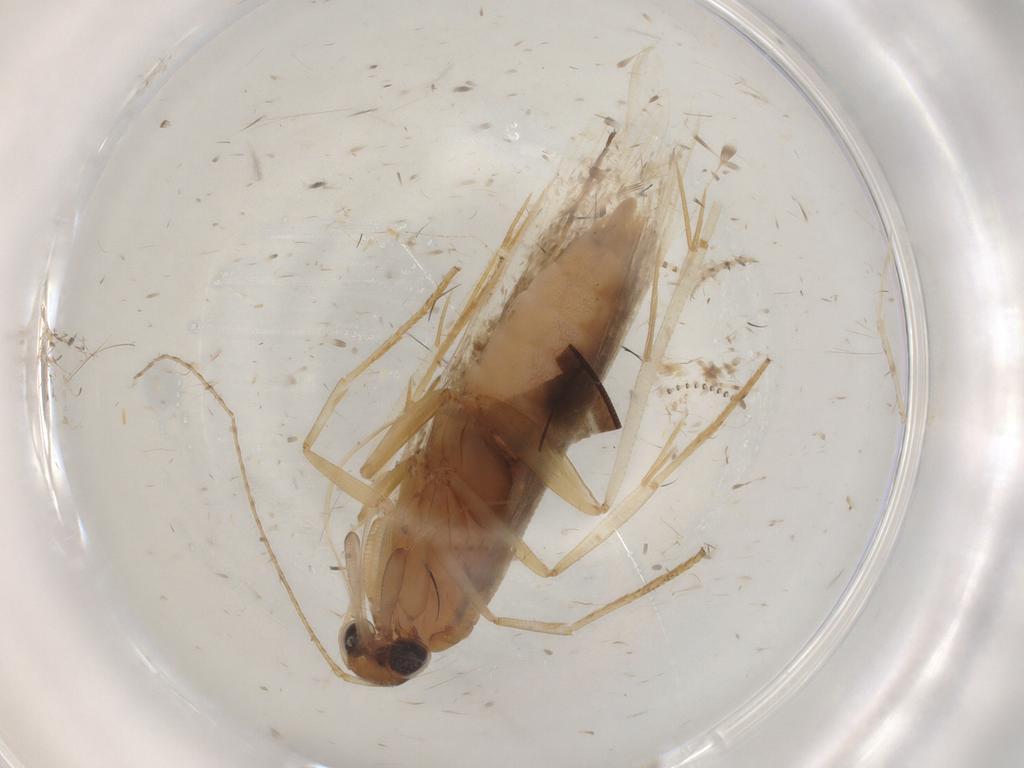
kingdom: Animalia
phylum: Arthropoda
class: Insecta
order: Lepidoptera
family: Gelechiidae
